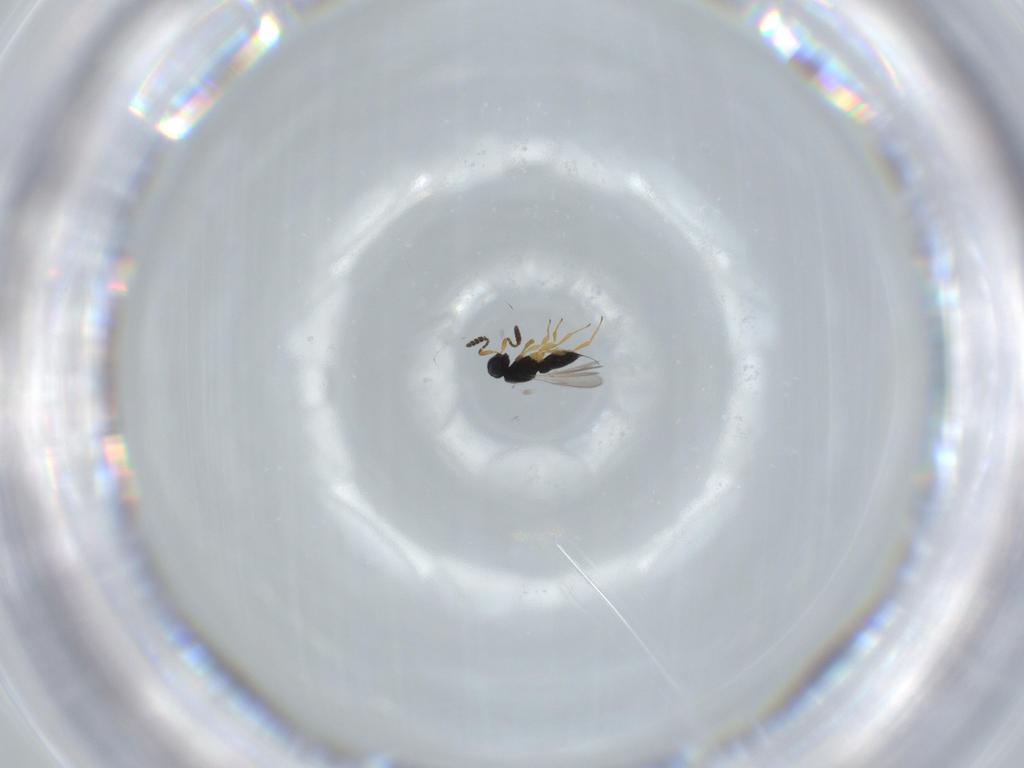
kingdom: Animalia
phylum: Arthropoda
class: Insecta
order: Hymenoptera
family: Scelionidae
